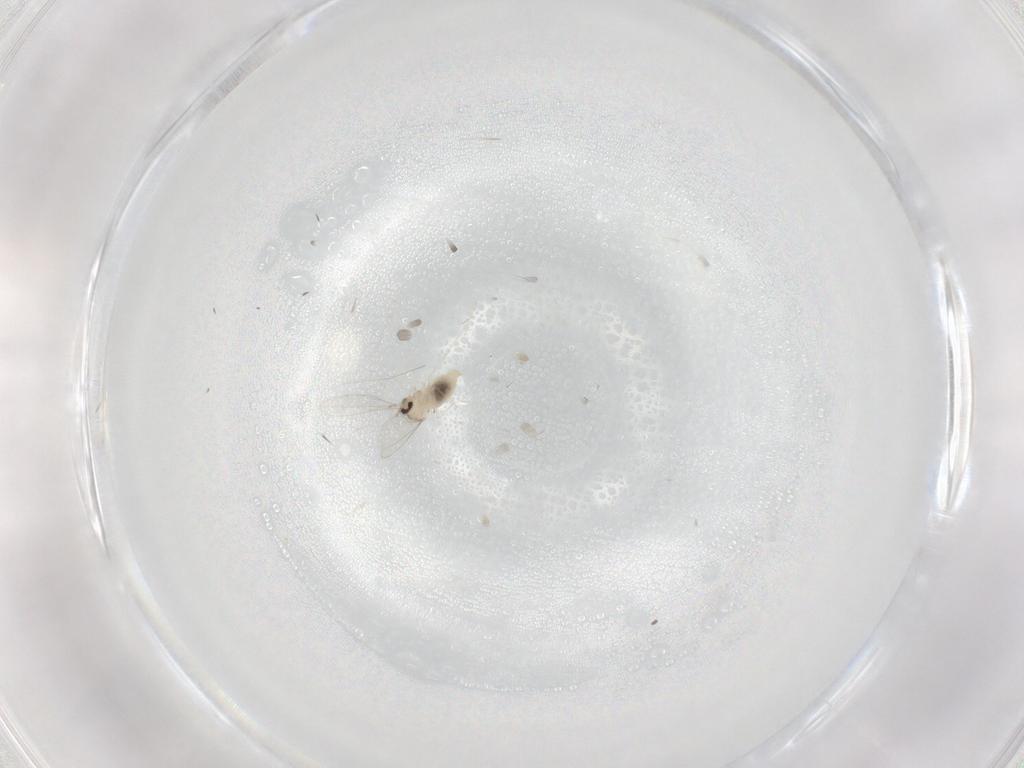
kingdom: Animalia
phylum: Arthropoda
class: Insecta
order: Diptera
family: Cecidomyiidae
